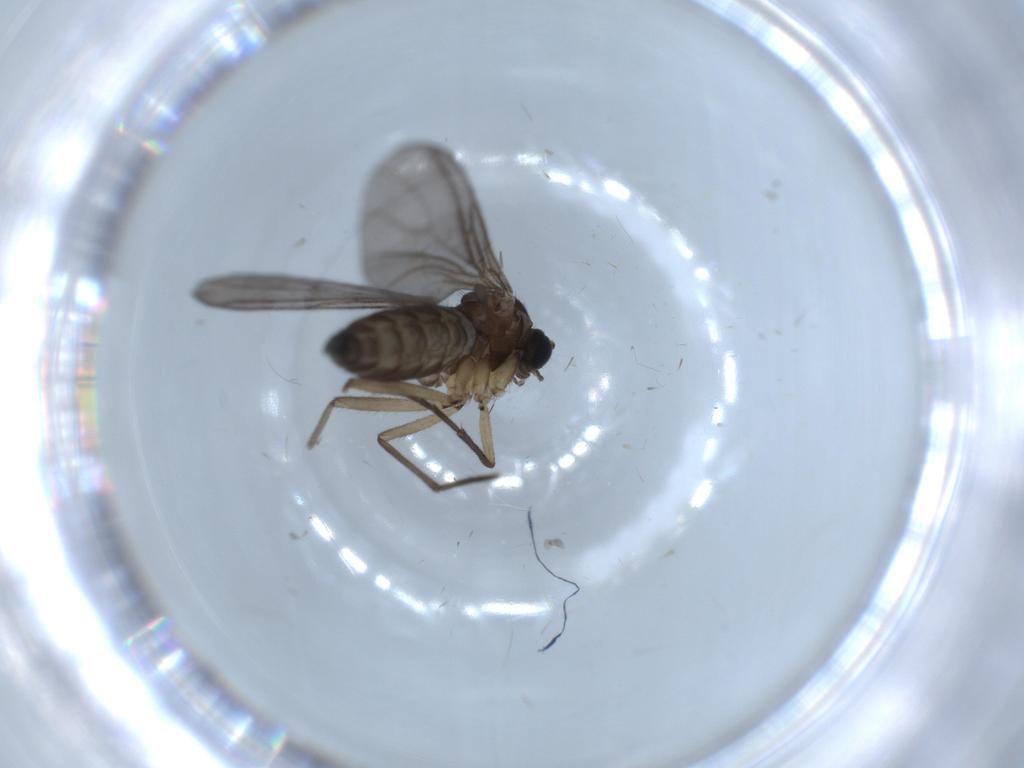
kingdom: Animalia
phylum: Arthropoda
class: Insecta
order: Diptera
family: Sciaridae
